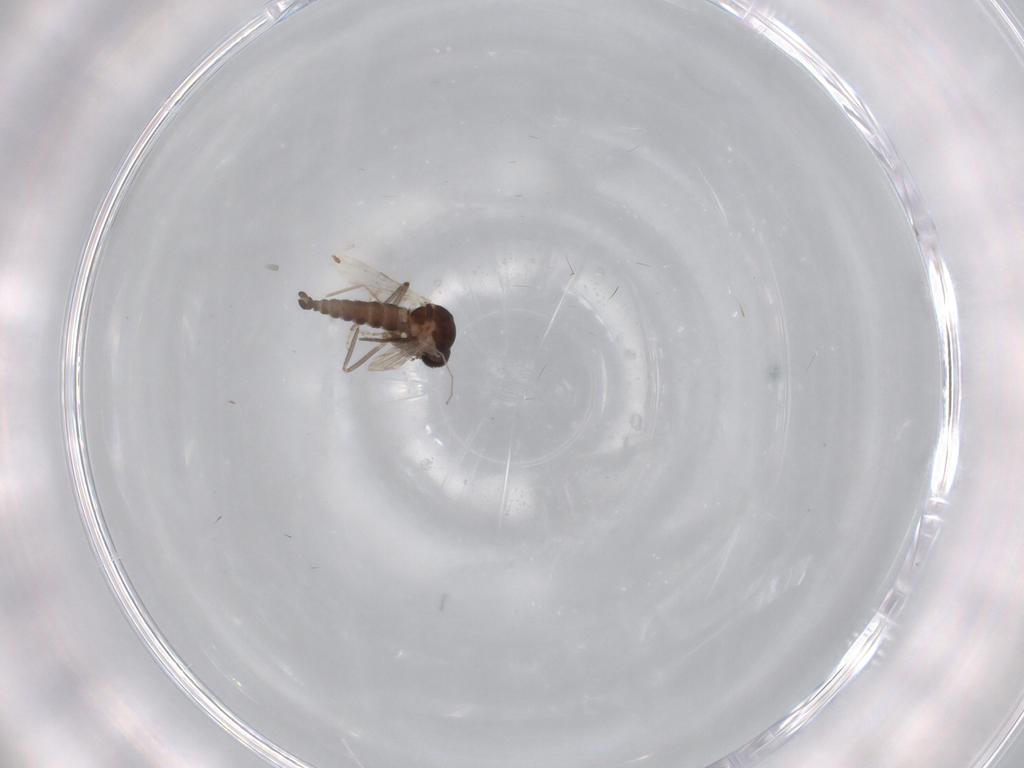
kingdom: Animalia
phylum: Arthropoda
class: Insecta
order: Diptera
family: Ceratopogonidae
